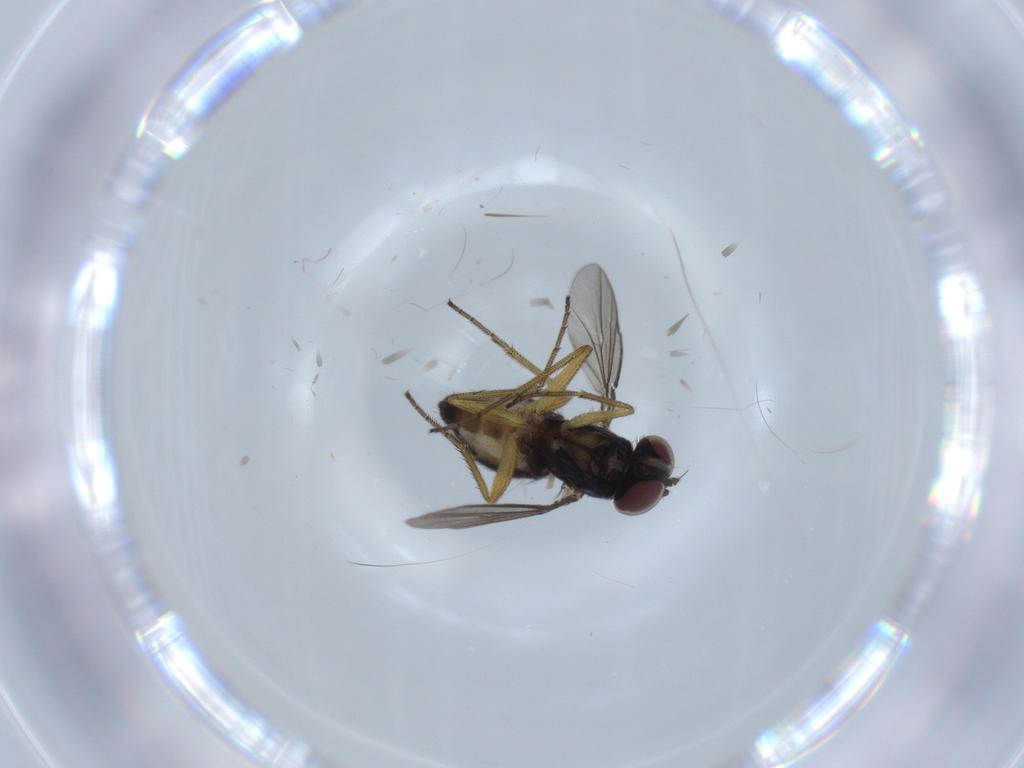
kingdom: Animalia
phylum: Arthropoda
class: Insecta
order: Diptera
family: Dolichopodidae
